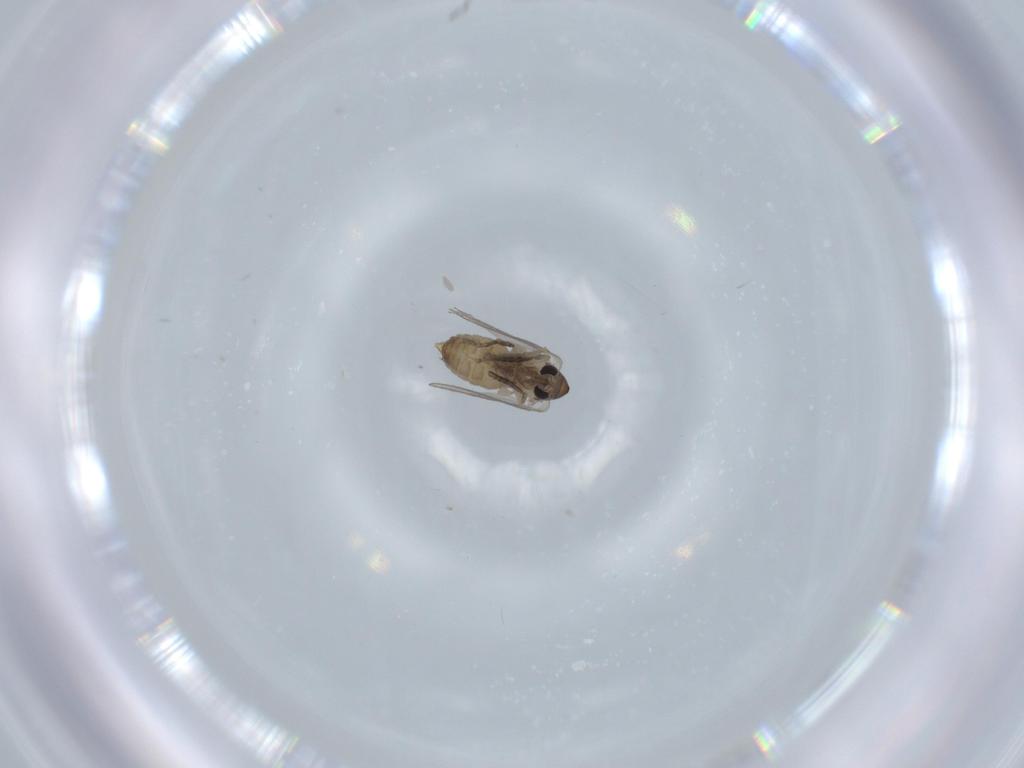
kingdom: Animalia
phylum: Arthropoda
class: Insecta
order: Diptera
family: Psychodidae
